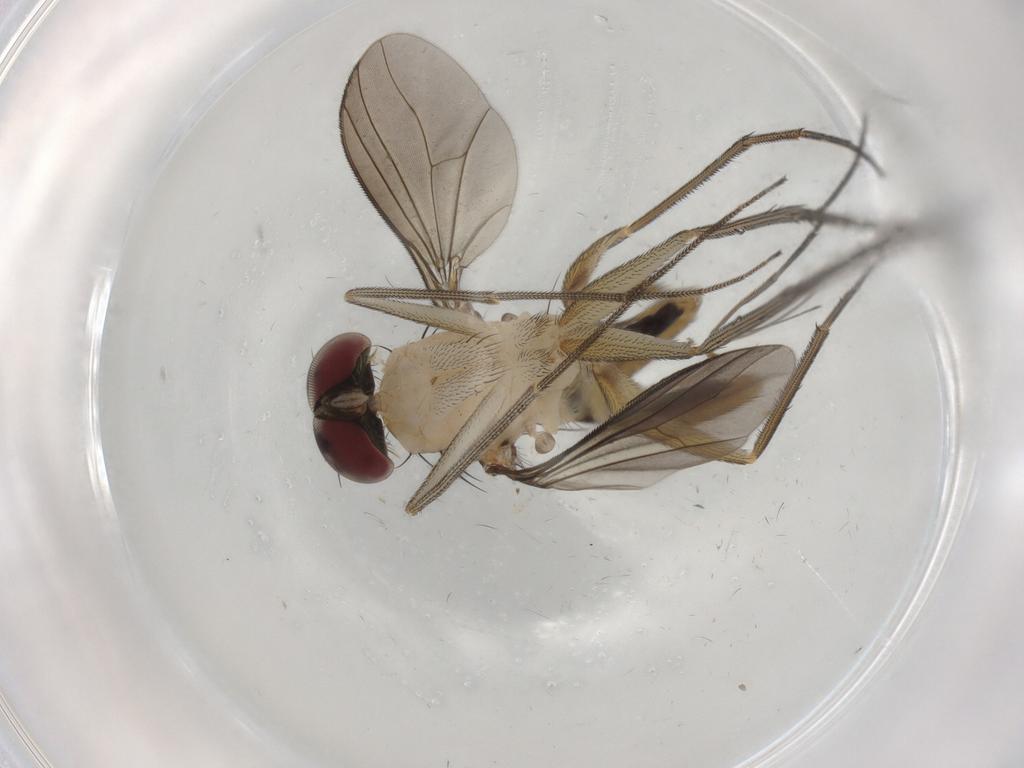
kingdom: Animalia
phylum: Arthropoda
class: Insecta
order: Diptera
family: Dolichopodidae
